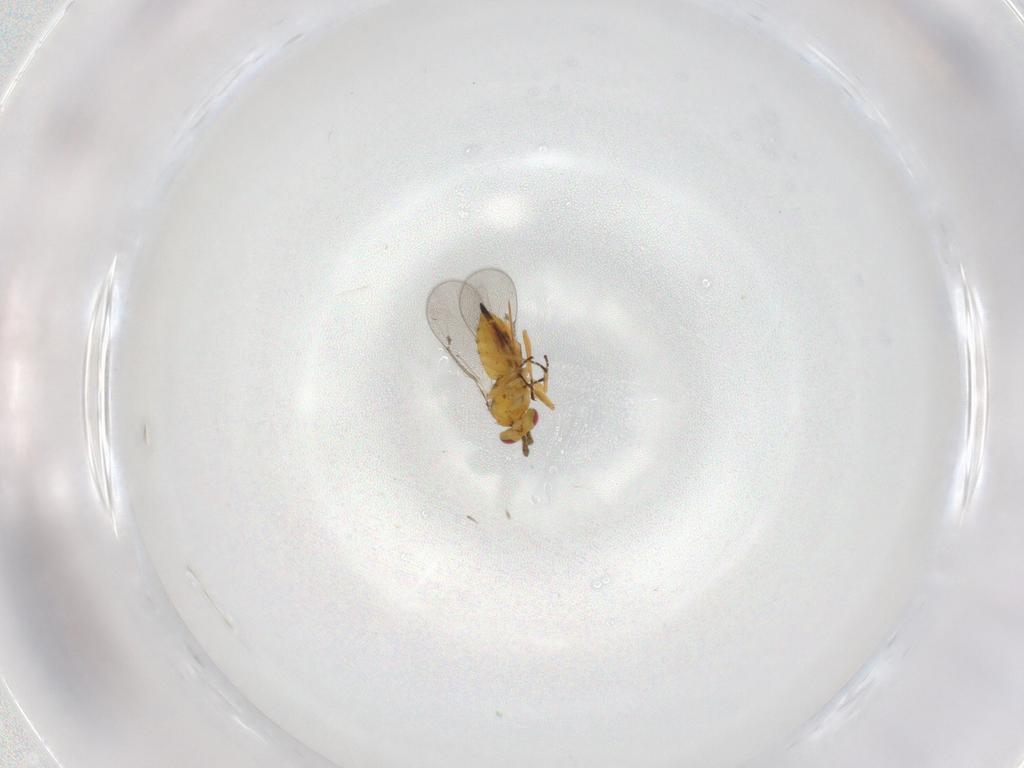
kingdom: Animalia
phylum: Arthropoda
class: Insecta
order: Hymenoptera
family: Eulophidae
